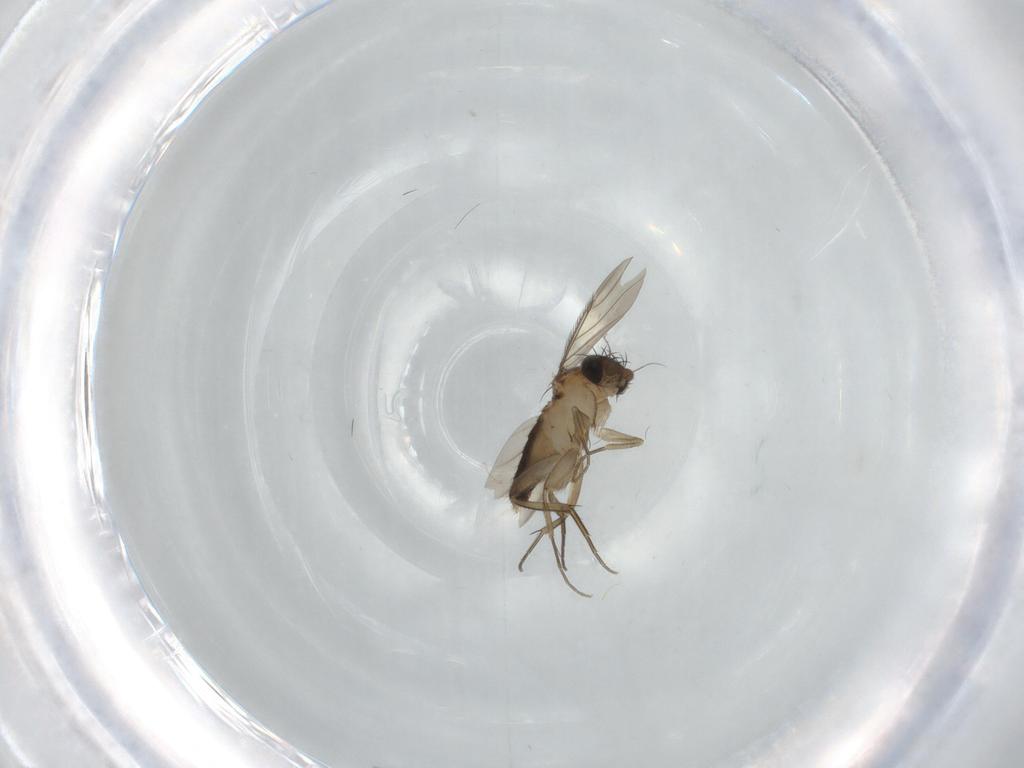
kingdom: Animalia
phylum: Arthropoda
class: Insecta
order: Diptera
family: Phoridae
